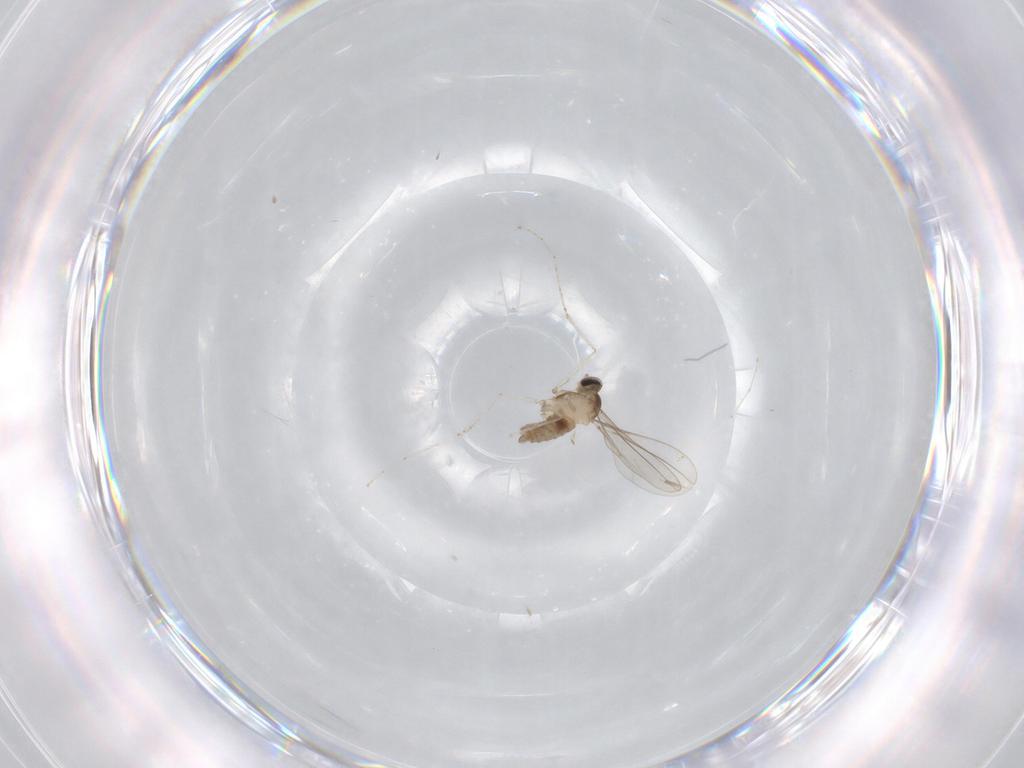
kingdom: Animalia
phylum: Arthropoda
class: Insecta
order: Diptera
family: Cecidomyiidae
